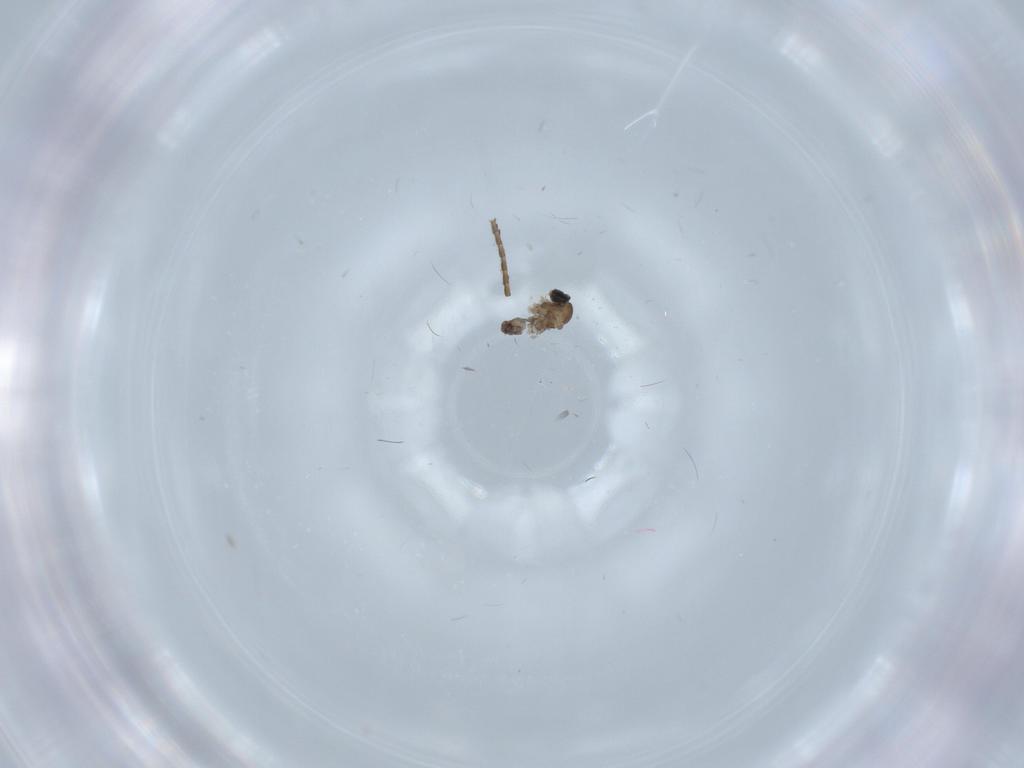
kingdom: Animalia
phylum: Arthropoda
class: Insecta
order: Diptera
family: Cecidomyiidae
